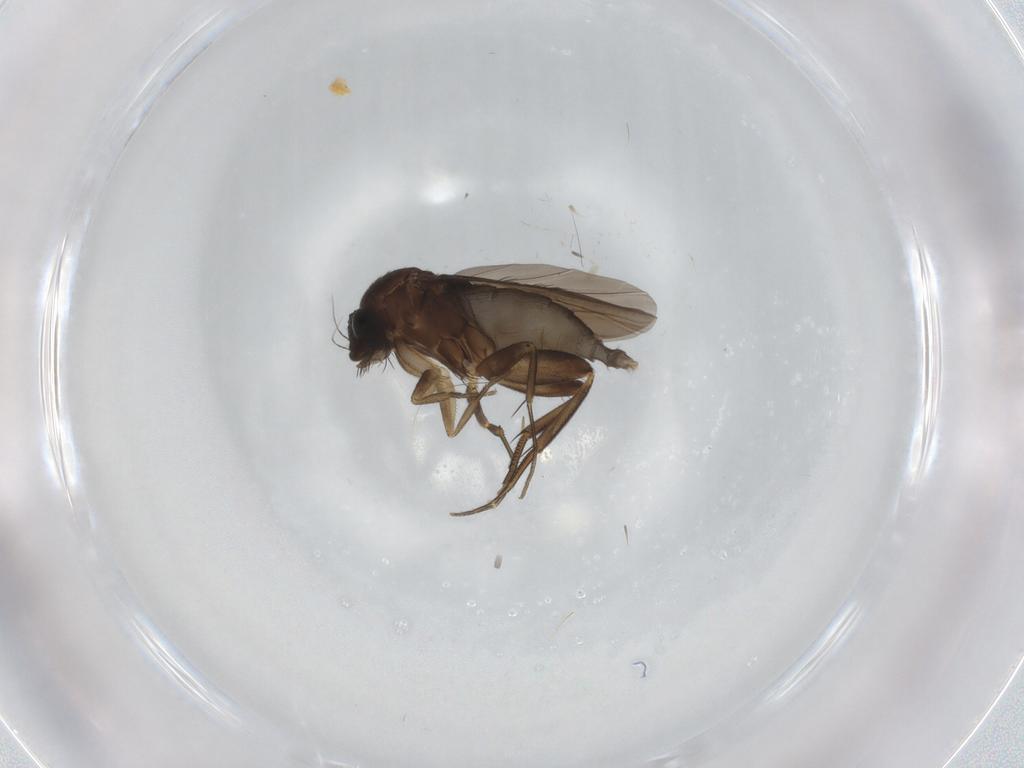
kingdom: Animalia
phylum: Arthropoda
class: Insecta
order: Diptera
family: Phoridae
